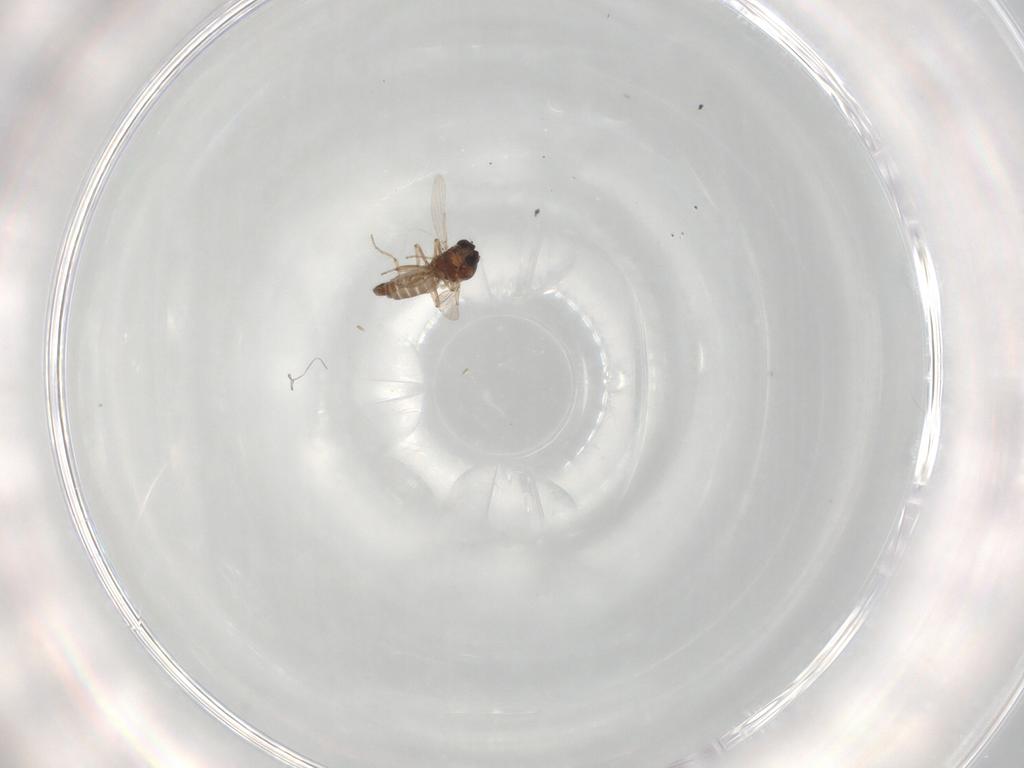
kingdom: Animalia
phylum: Arthropoda
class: Insecta
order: Diptera
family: Ceratopogonidae
